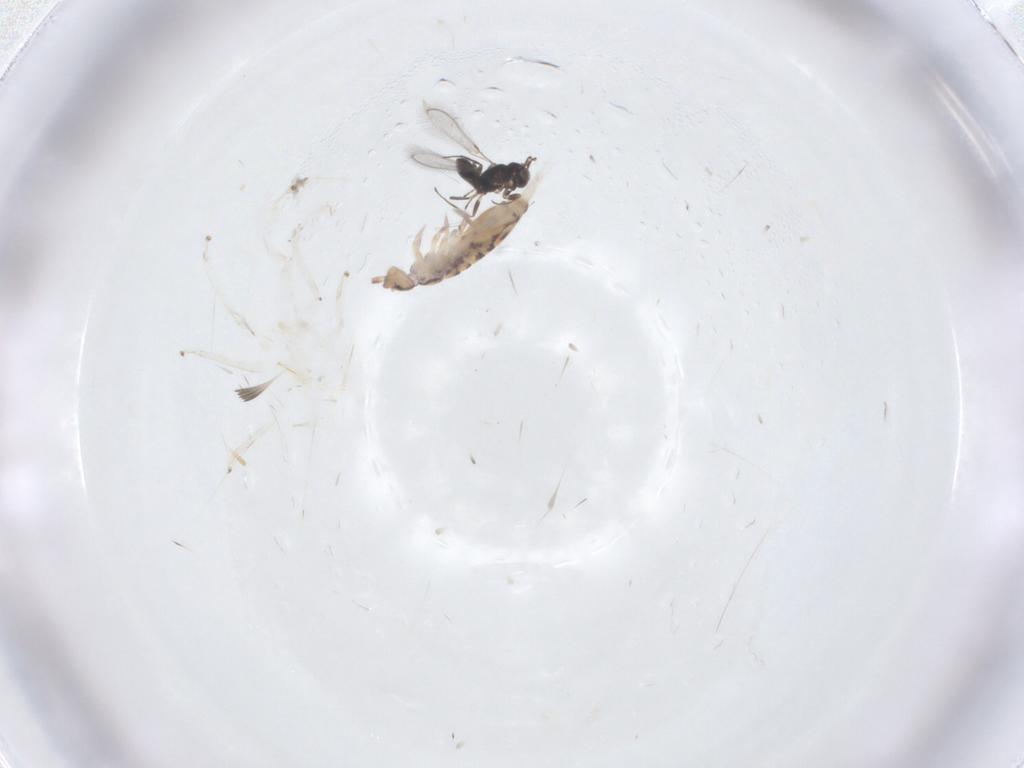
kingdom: Animalia
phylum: Arthropoda
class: Collembola
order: Entomobryomorpha
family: Entomobryidae
